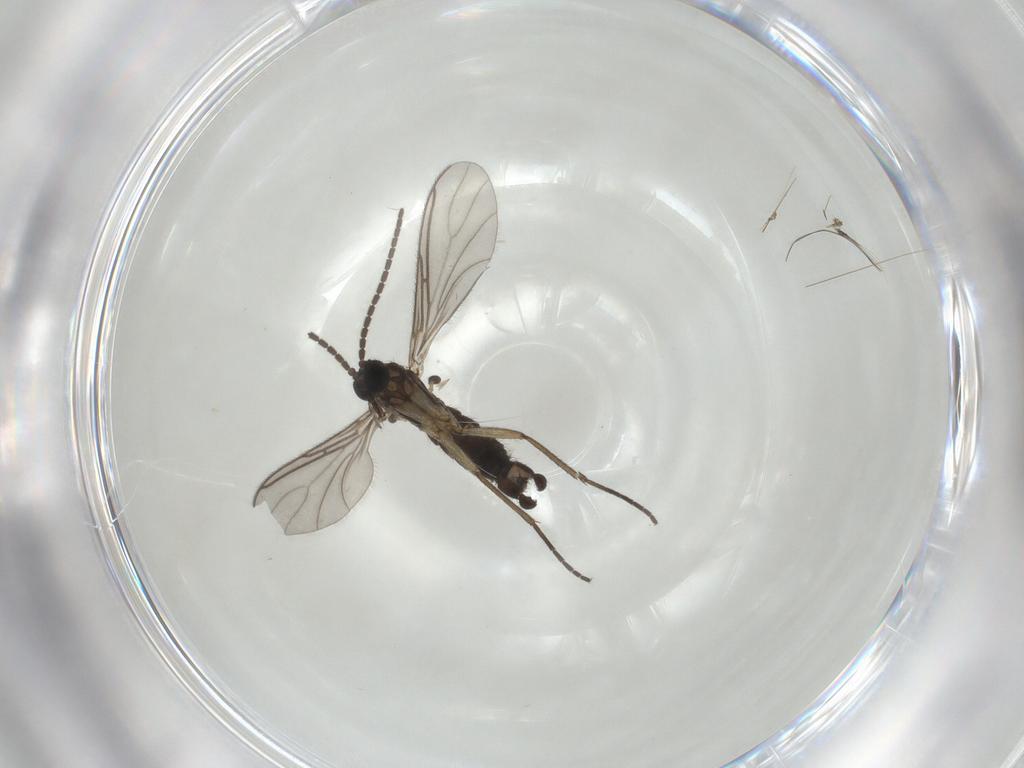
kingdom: Animalia
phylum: Arthropoda
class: Insecta
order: Diptera
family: Sciaridae
